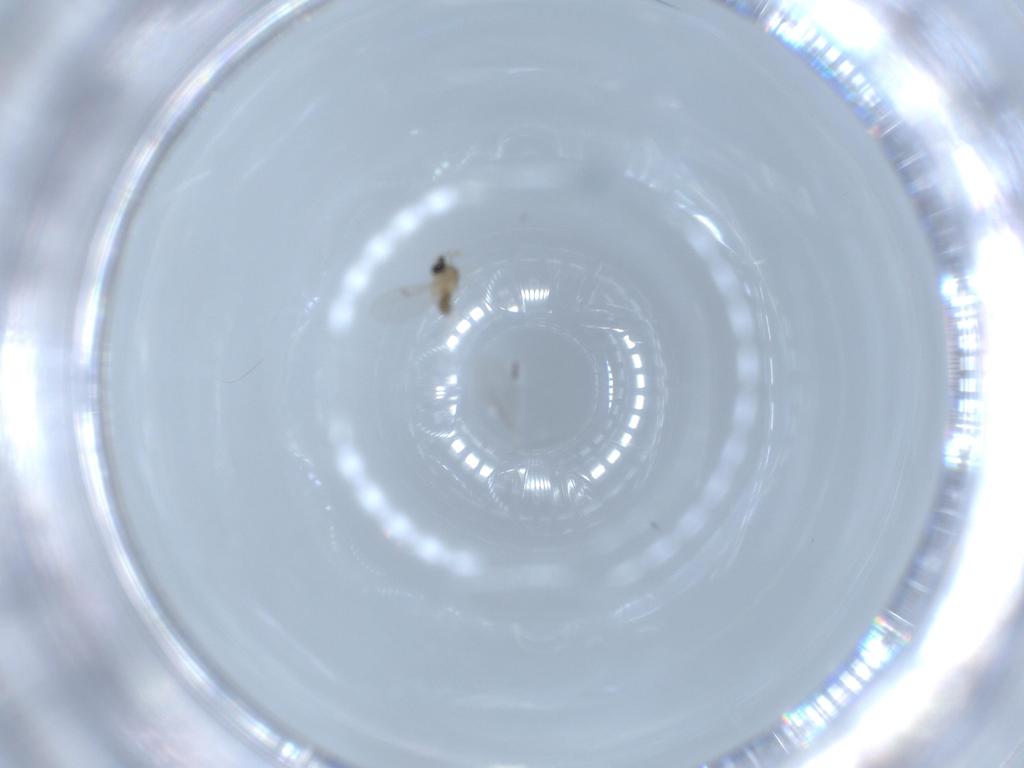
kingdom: Animalia
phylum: Arthropoda
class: Insecta
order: Diptera
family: Cecidomyiidae
